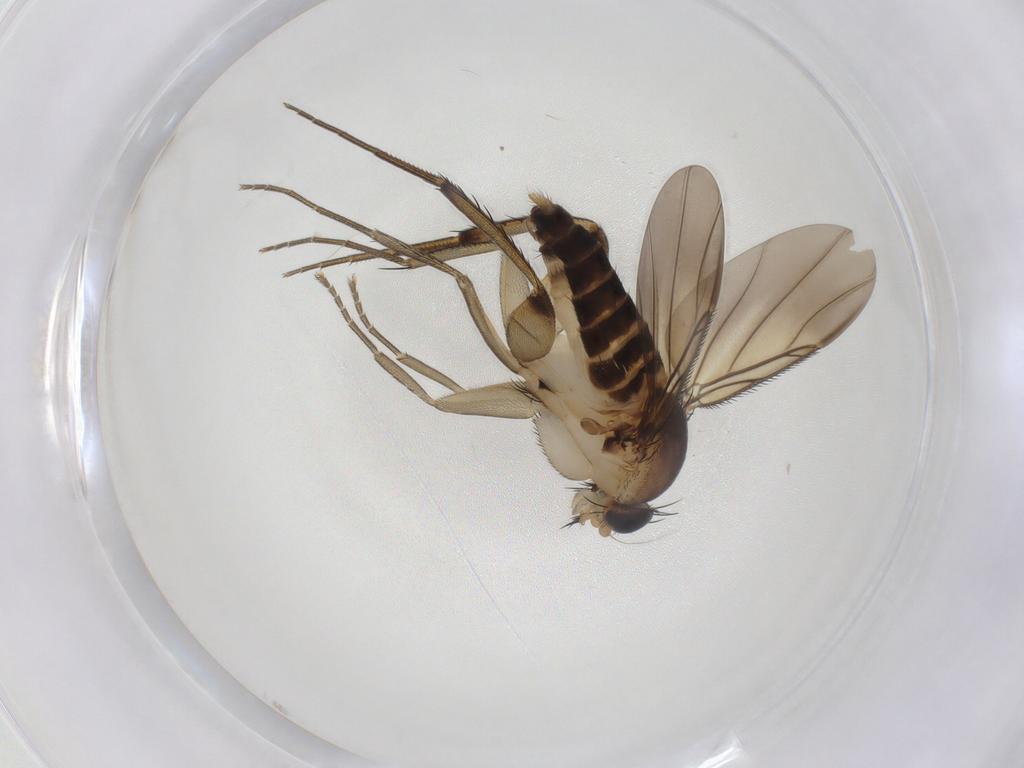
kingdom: Animalia
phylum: Arthropoda
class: Insecta
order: Diptera
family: Phoridae
